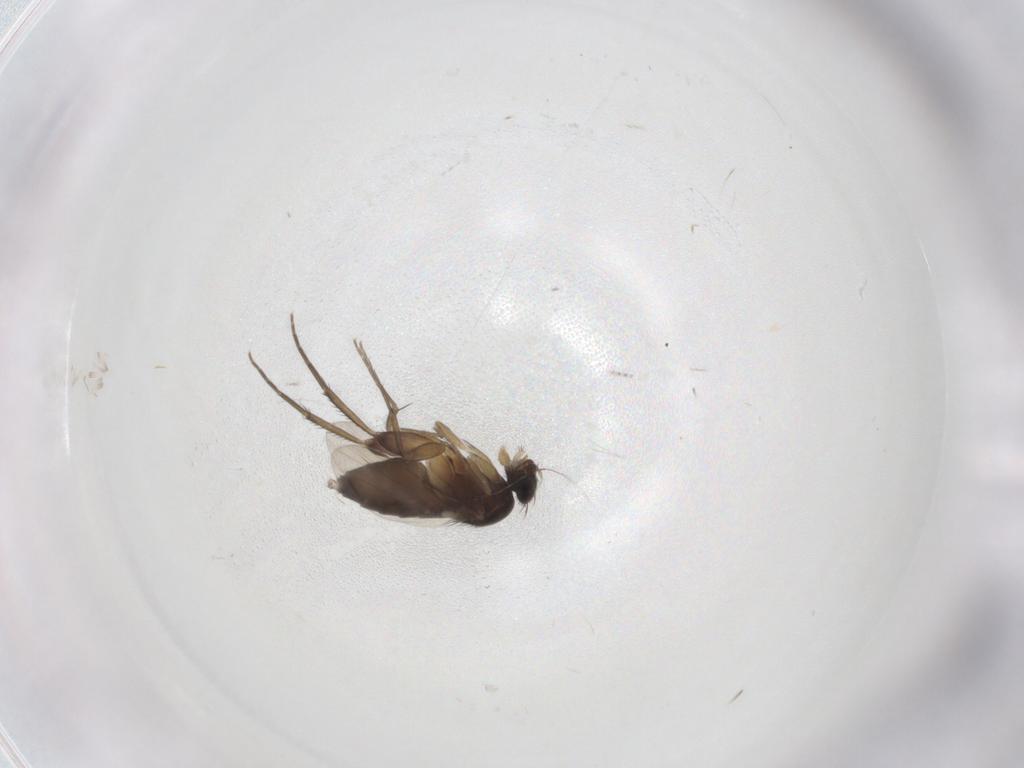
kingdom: Animalia
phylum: Arthropoda
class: Insecta
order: Diptera
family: Phoridae
